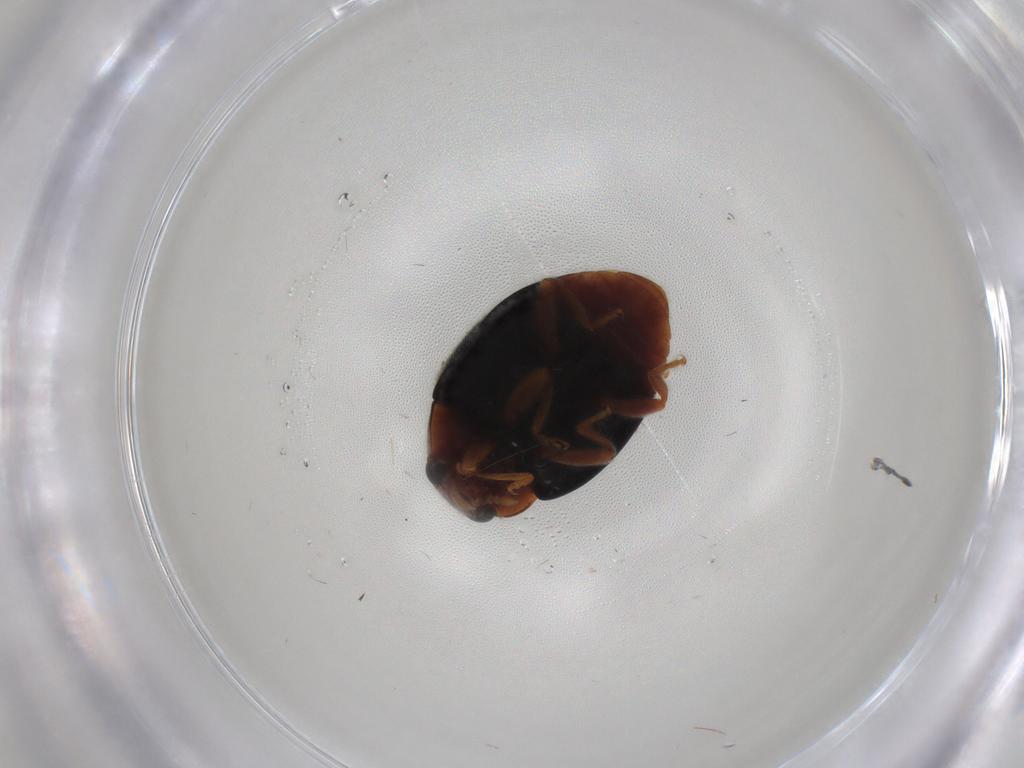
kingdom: Animalia
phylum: Arthropoda
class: Insecta
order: Coleoptera
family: Coccinellidae
